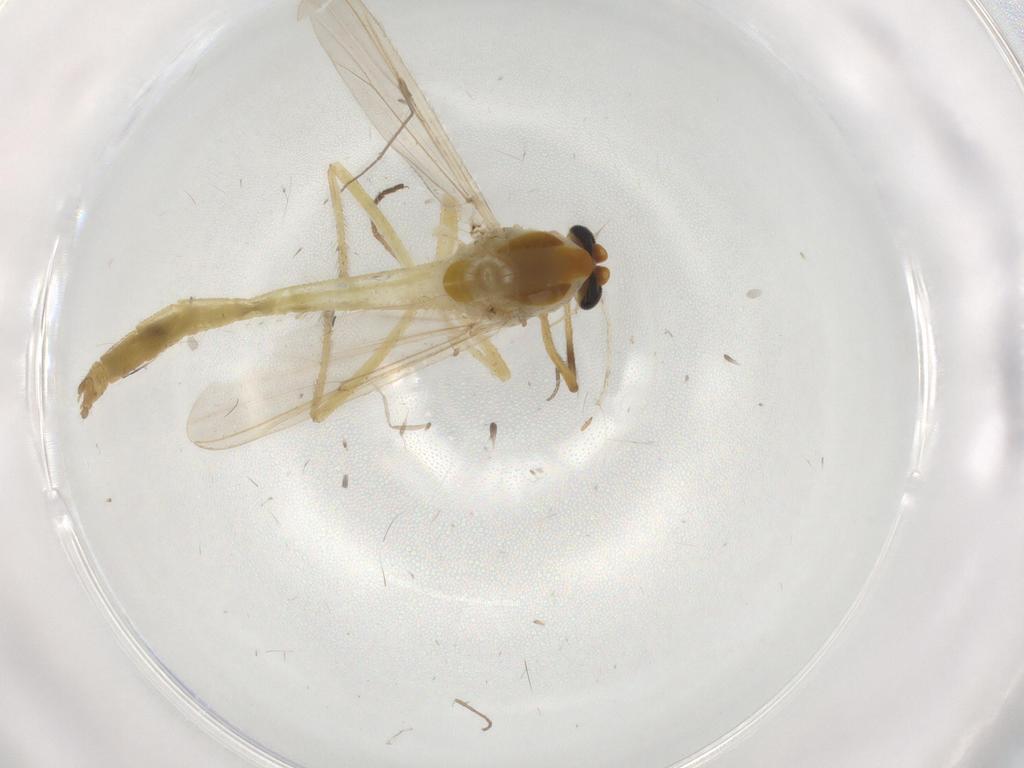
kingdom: Animalia
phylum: Arthropoda
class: Insecta
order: Diptera
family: Chironomidae
